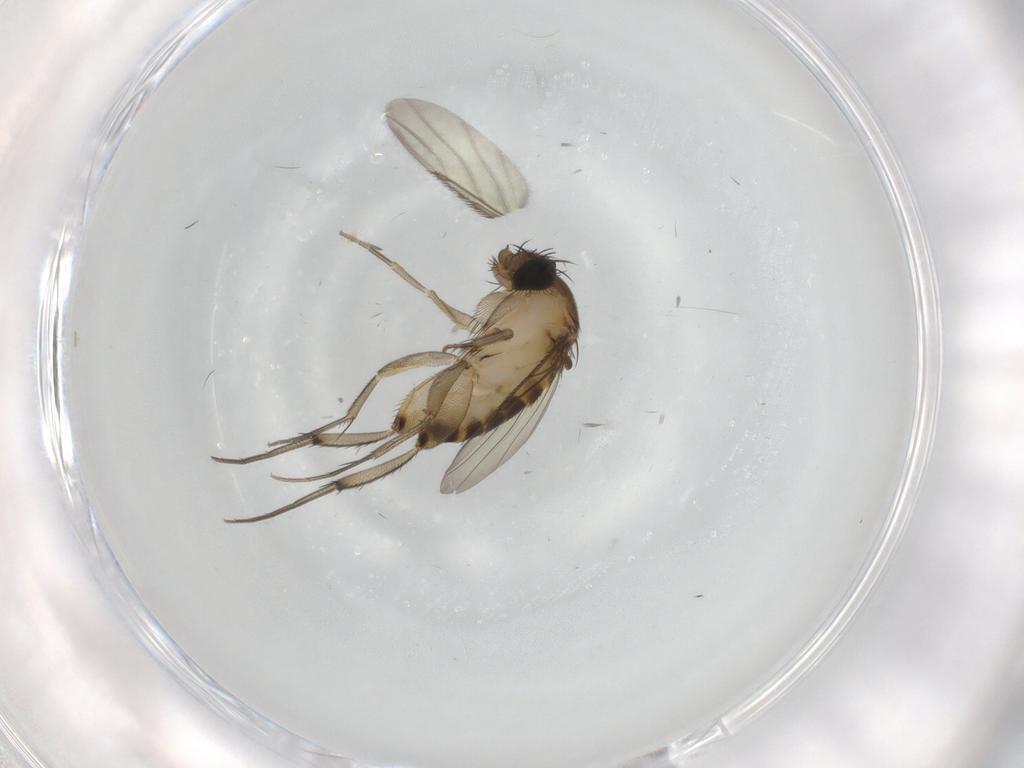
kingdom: Animalia
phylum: Arthropoda
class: Insecta
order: Diptera
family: Phoridae
